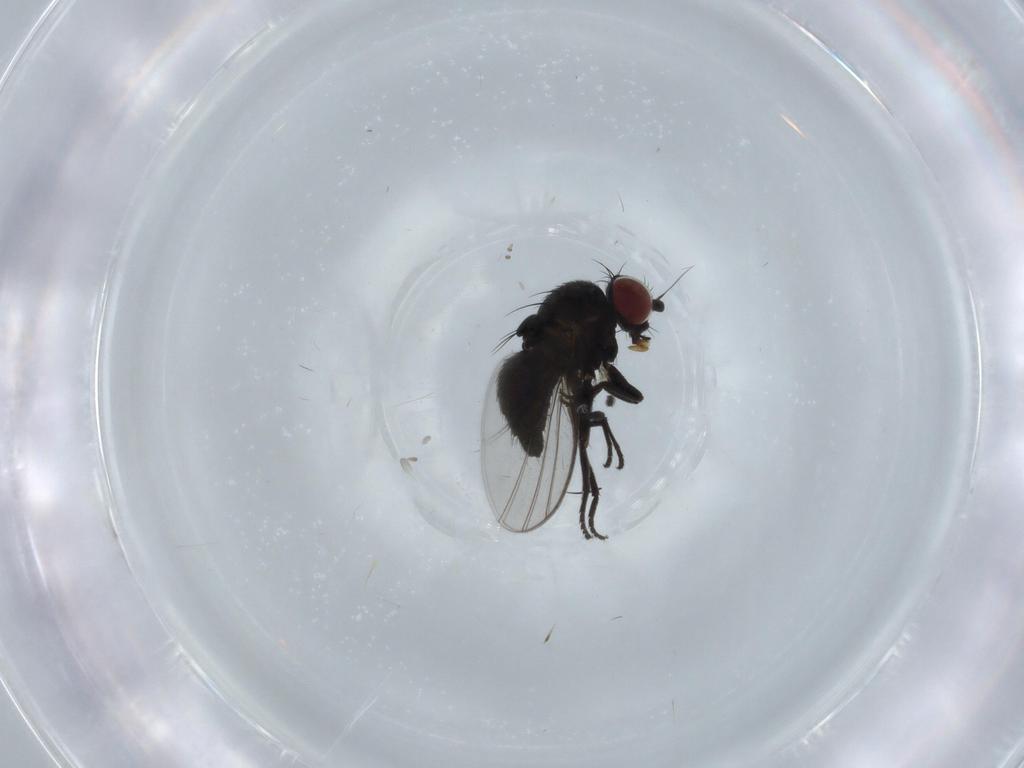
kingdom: Animalia
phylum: Arthropoda
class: Insecta
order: Diptera
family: Agromyzidae
